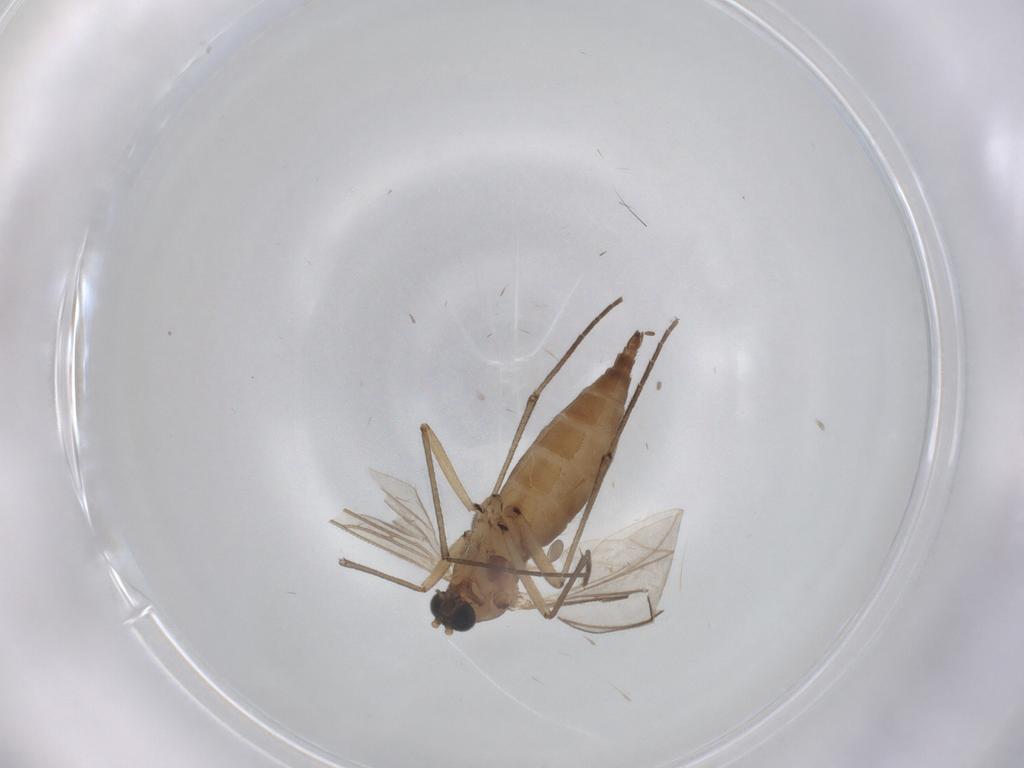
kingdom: Animalia
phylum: Arthropoda
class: Insecta
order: Diptera
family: Sciaridae
